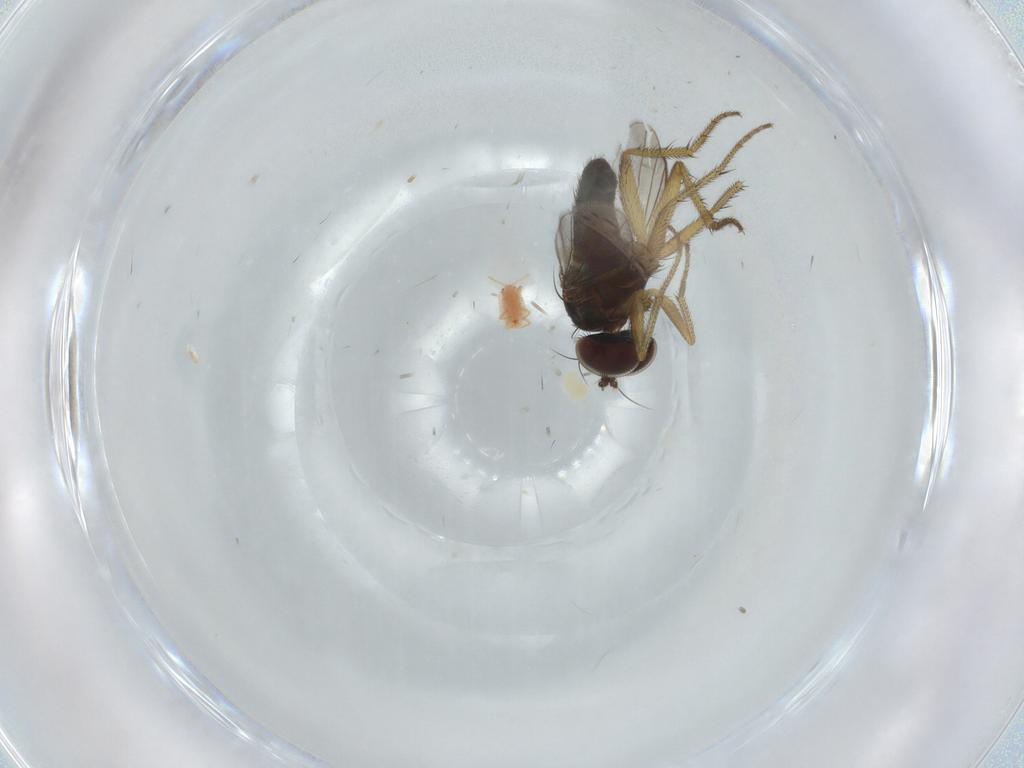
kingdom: Animalia
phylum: Arthropoda
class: Insecta
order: Diptera
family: Dolichopodidae
